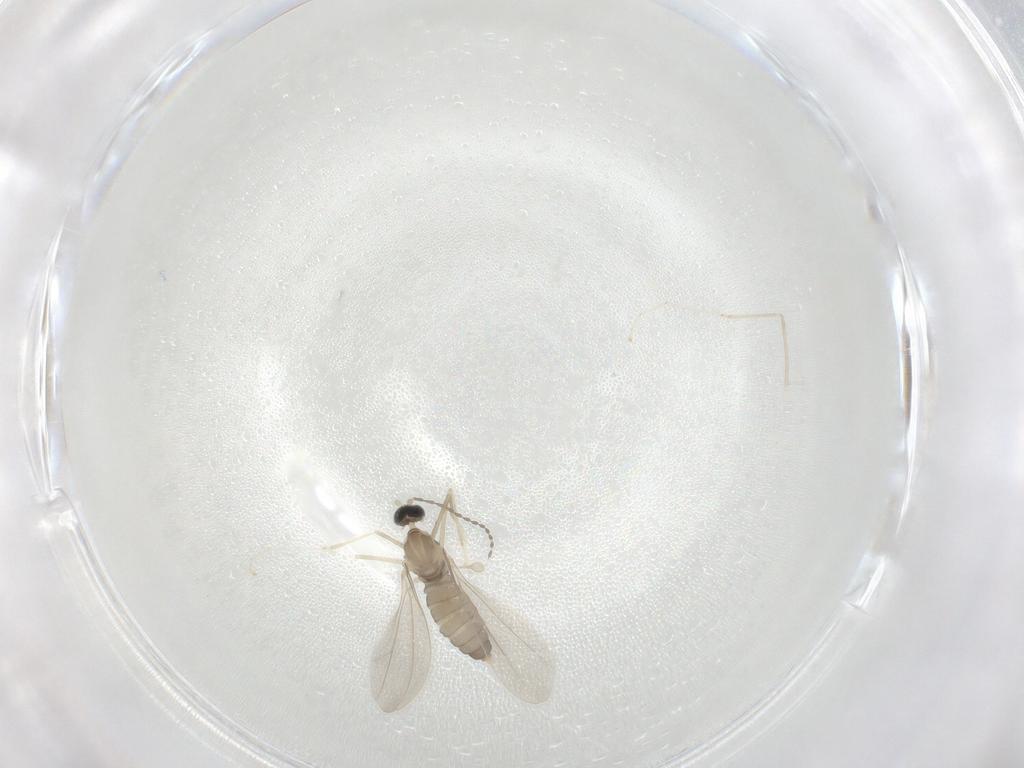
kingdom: Animalia
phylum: Arthropoda
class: Insecta
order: Diptera
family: Cecidomyiidae
